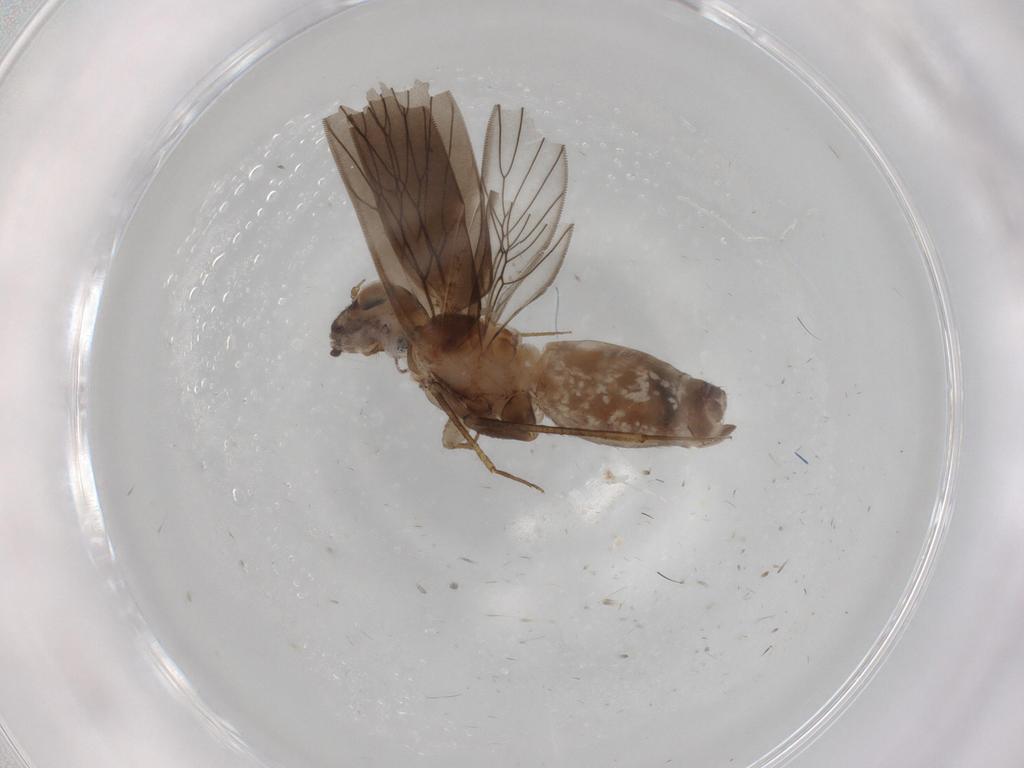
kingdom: Animalia
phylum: Arthropoda
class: Insecta
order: Psocodea
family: Lepidopsocidae
